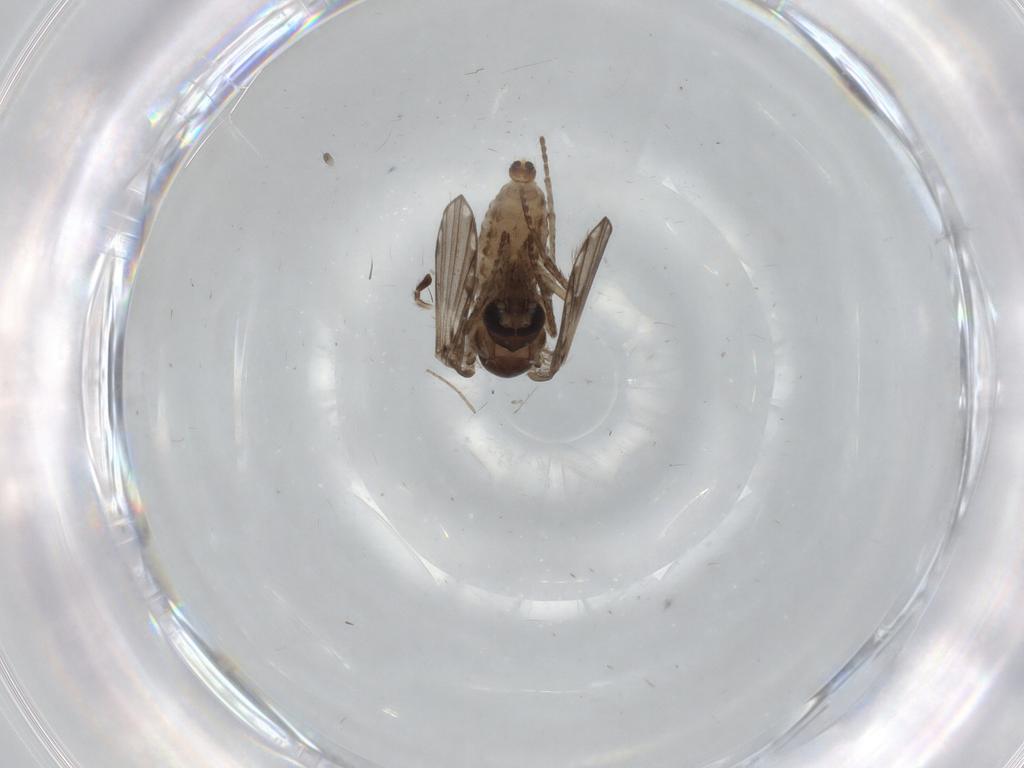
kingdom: Animalia
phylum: Arthropoda
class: Insecta
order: Diptera
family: Psychodidae
